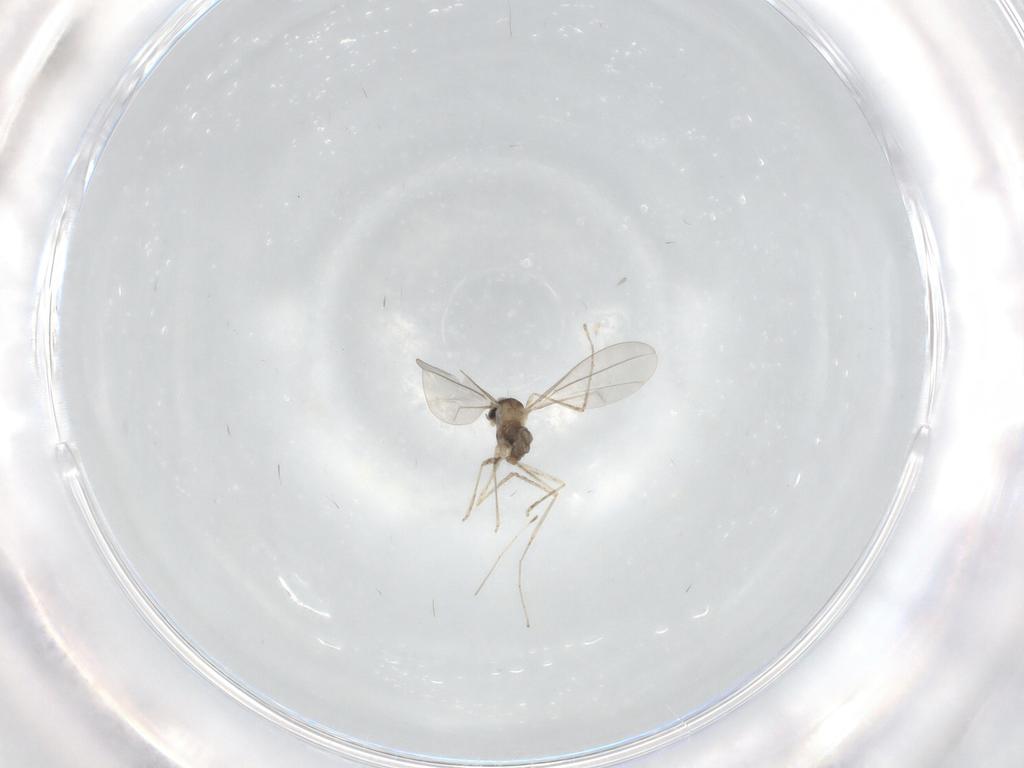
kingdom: Animalia
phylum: Arthropoda
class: Insecta
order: Diptera
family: Cecidomyiidae
